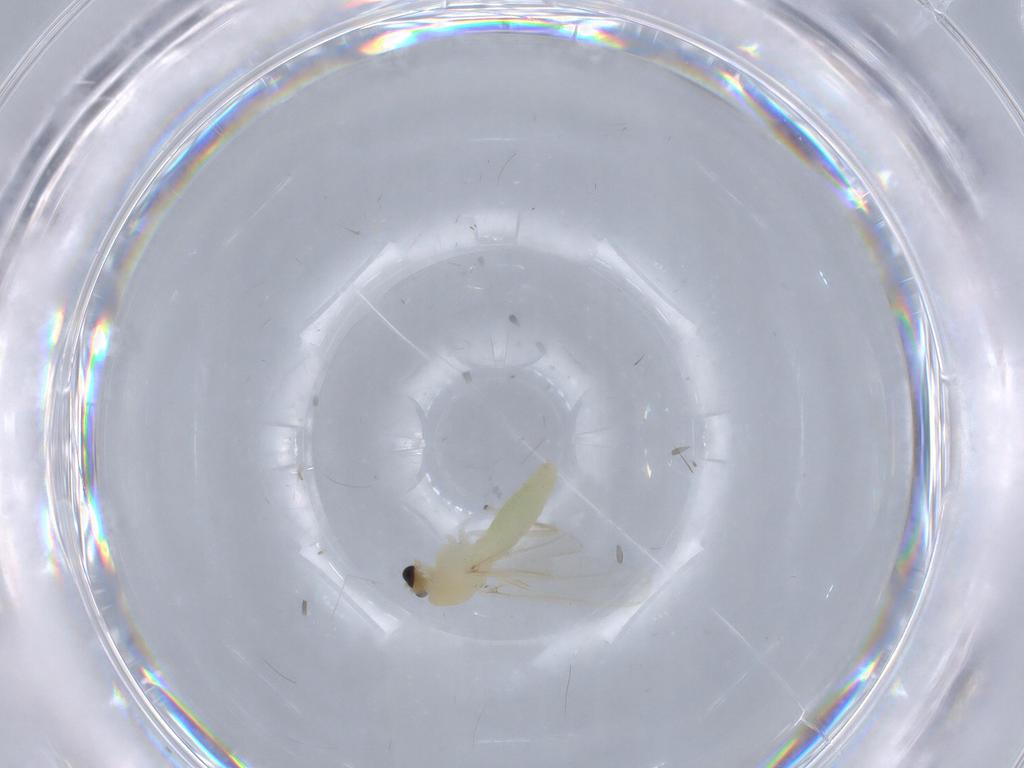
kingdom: Animalia
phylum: Arthropoda
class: Insecta
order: Diptera
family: Chironomidae
